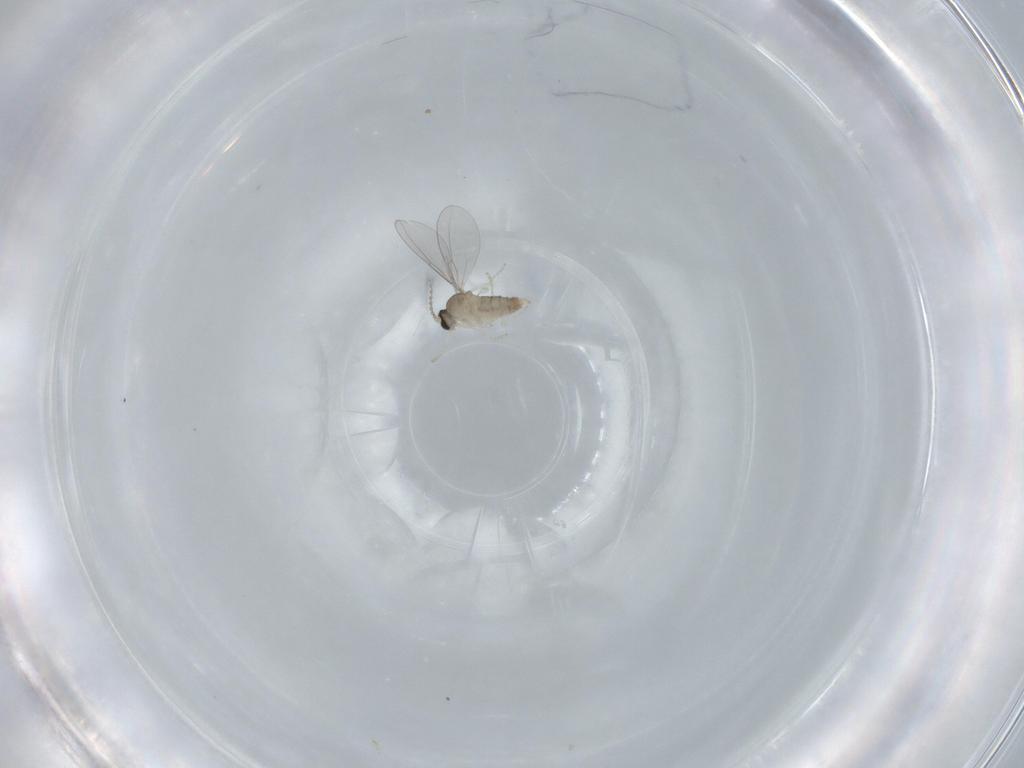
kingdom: Animalia
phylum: Arthropoda
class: Insecta
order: Diptera
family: Cecidomyiidae
